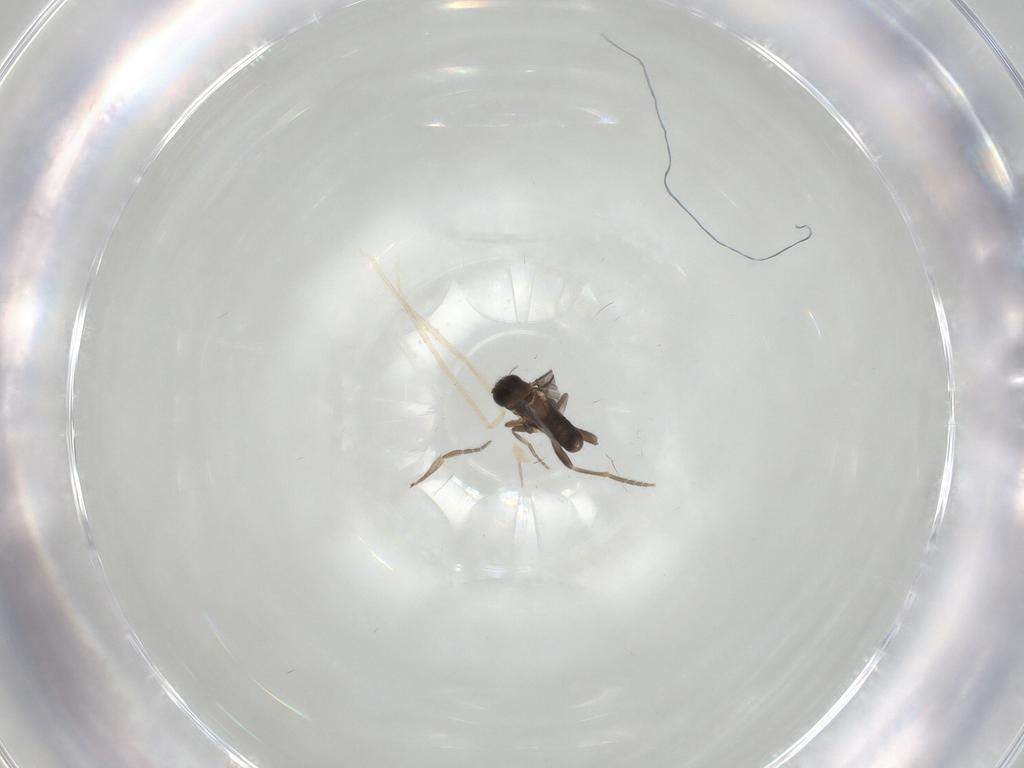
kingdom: Animalia
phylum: Arthropoda
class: Insecta
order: Diptera
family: Phoridae
